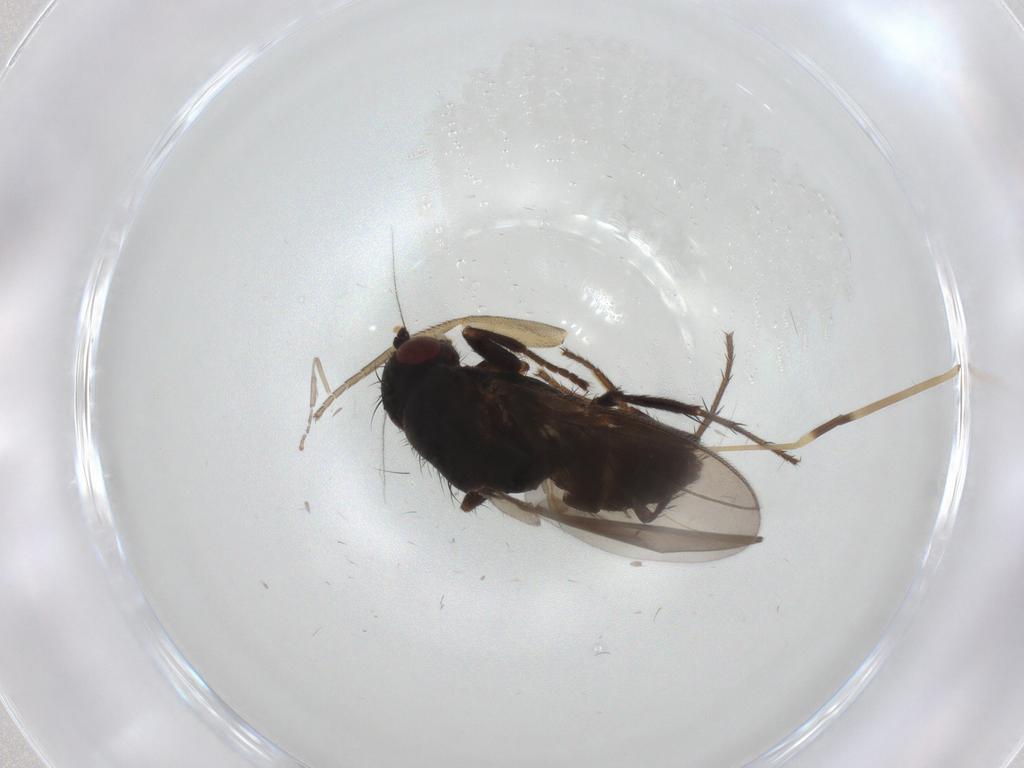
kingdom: Animalia
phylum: Arthropoda
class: Insecta
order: Diptera
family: Sphaeroceridae
